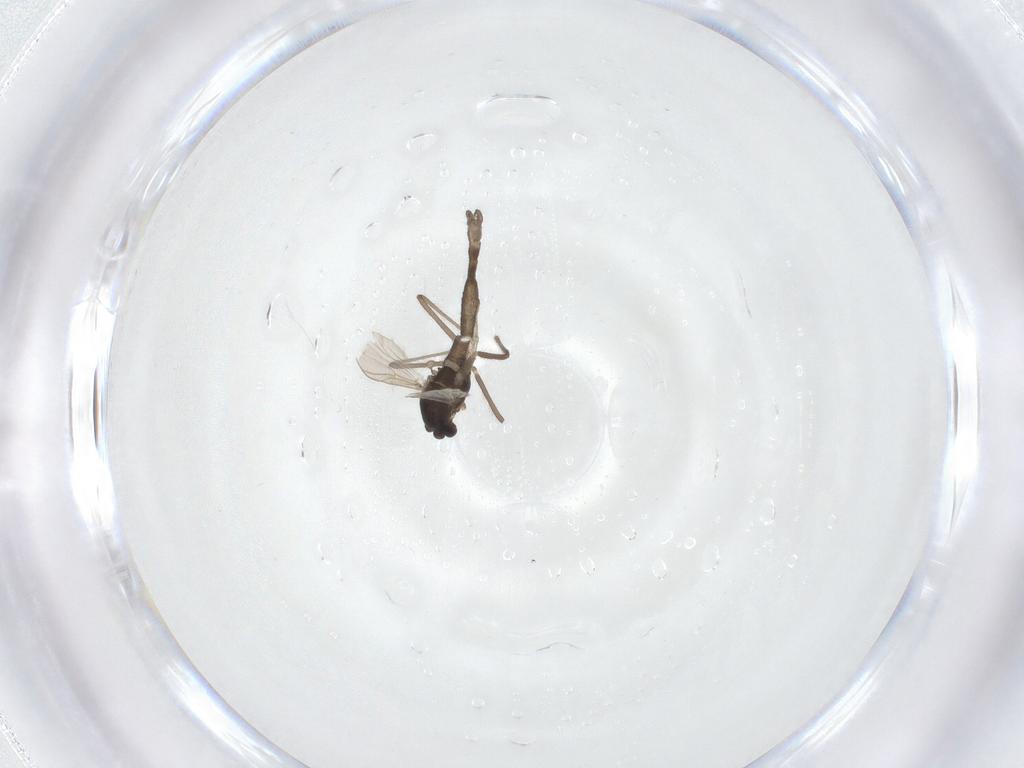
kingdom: Animalia
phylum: Arthropoda
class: Insecta
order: Diptera
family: Chironomidae
